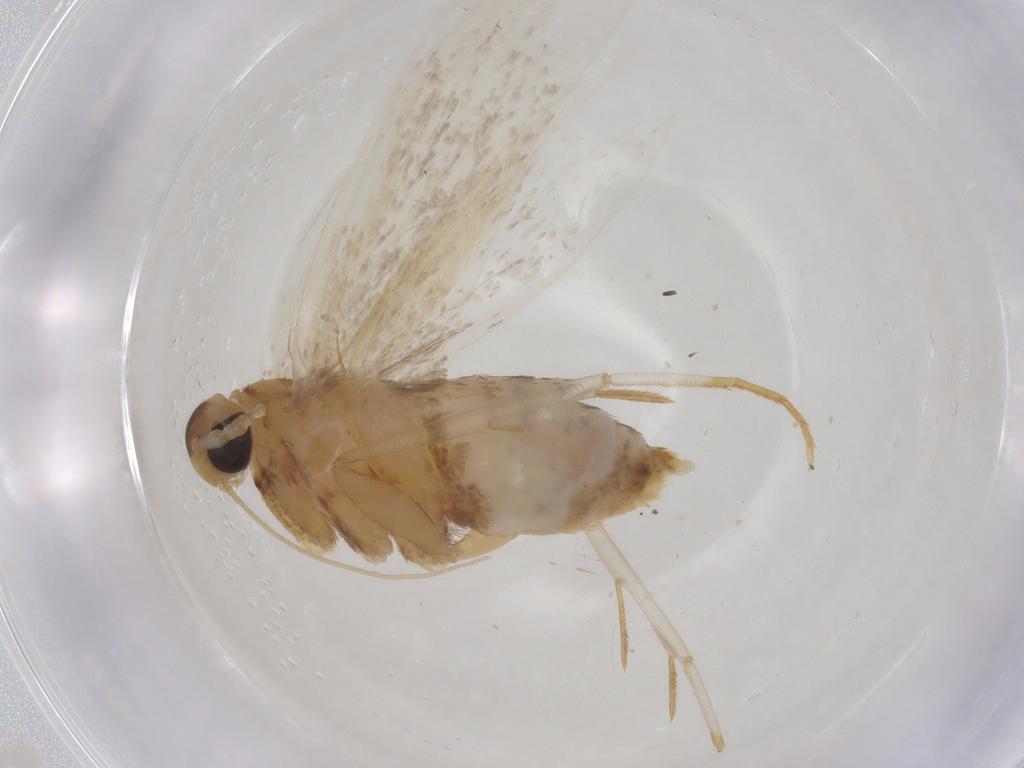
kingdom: Animalia
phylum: Arthropoda
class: Insecta
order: Lepidoptera
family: Lecithoceridae
